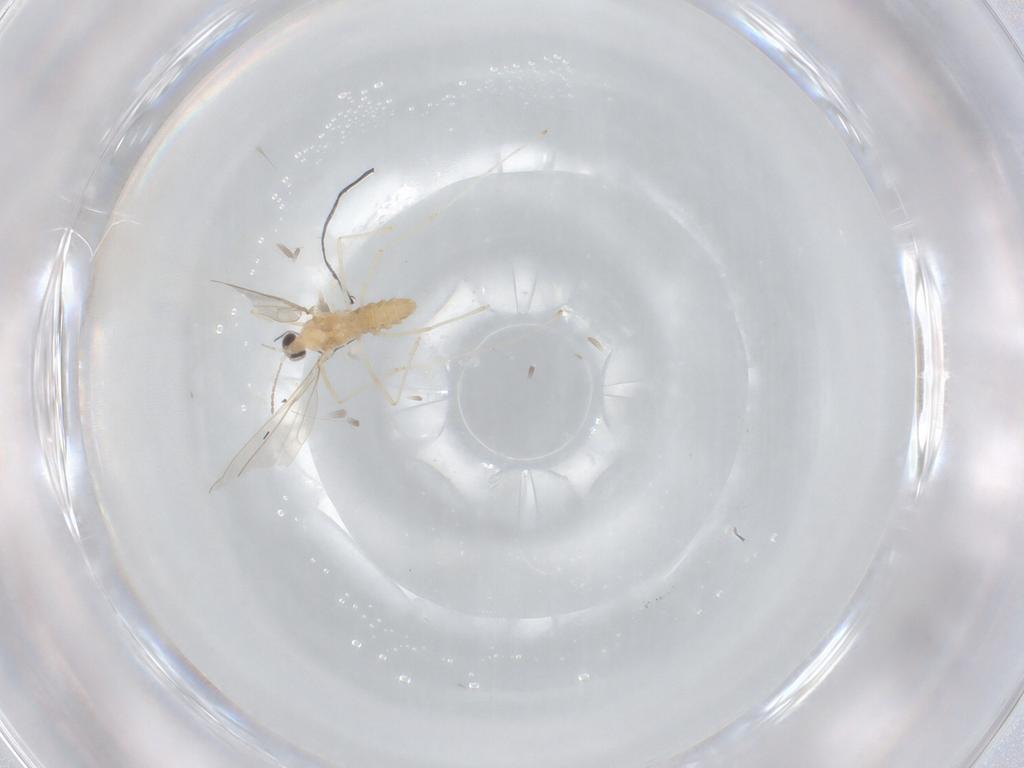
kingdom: Animalia
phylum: Arthropoda
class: Insecta
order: Diptera
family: Cecidomyiidae
